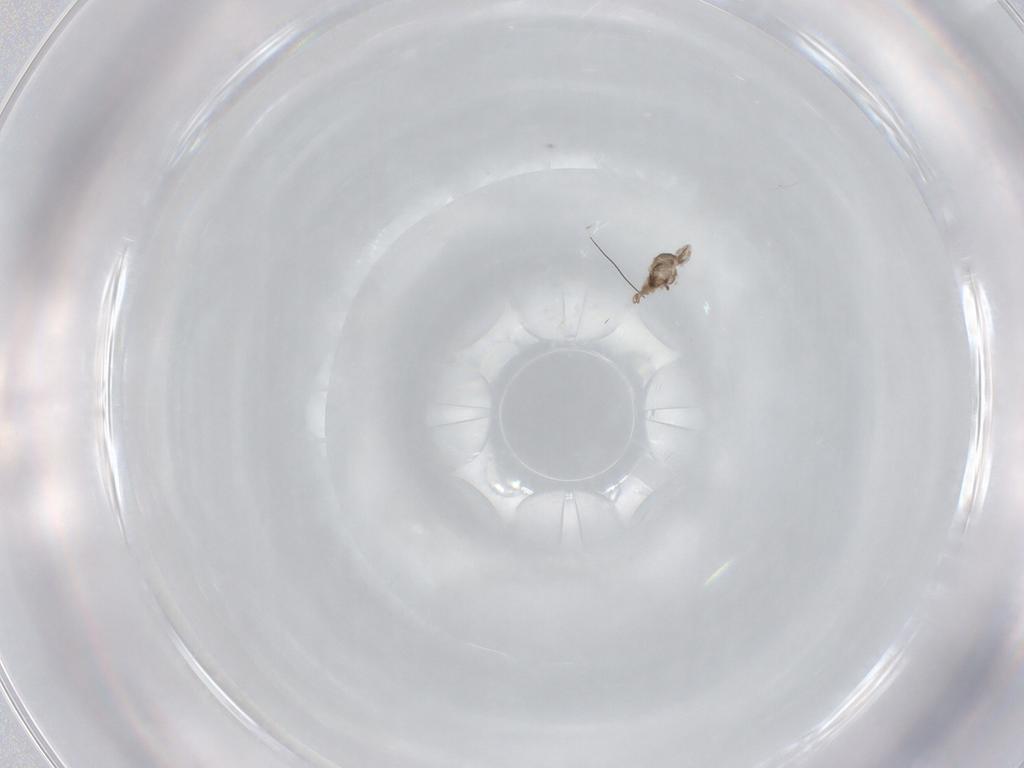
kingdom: Animalia
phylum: Arthropoda
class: Insecta
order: Diptera
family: Cecidomyiidae
